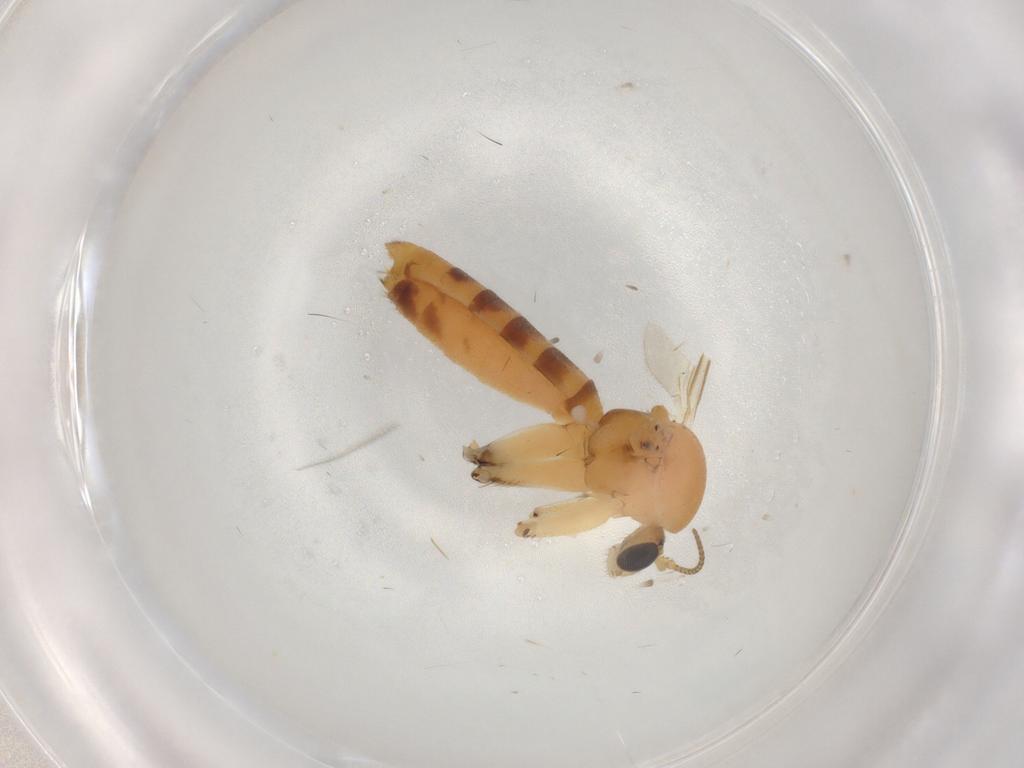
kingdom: Animalia
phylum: Arthropoda
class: Insecta
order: Diptera
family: Mycetophilidae
